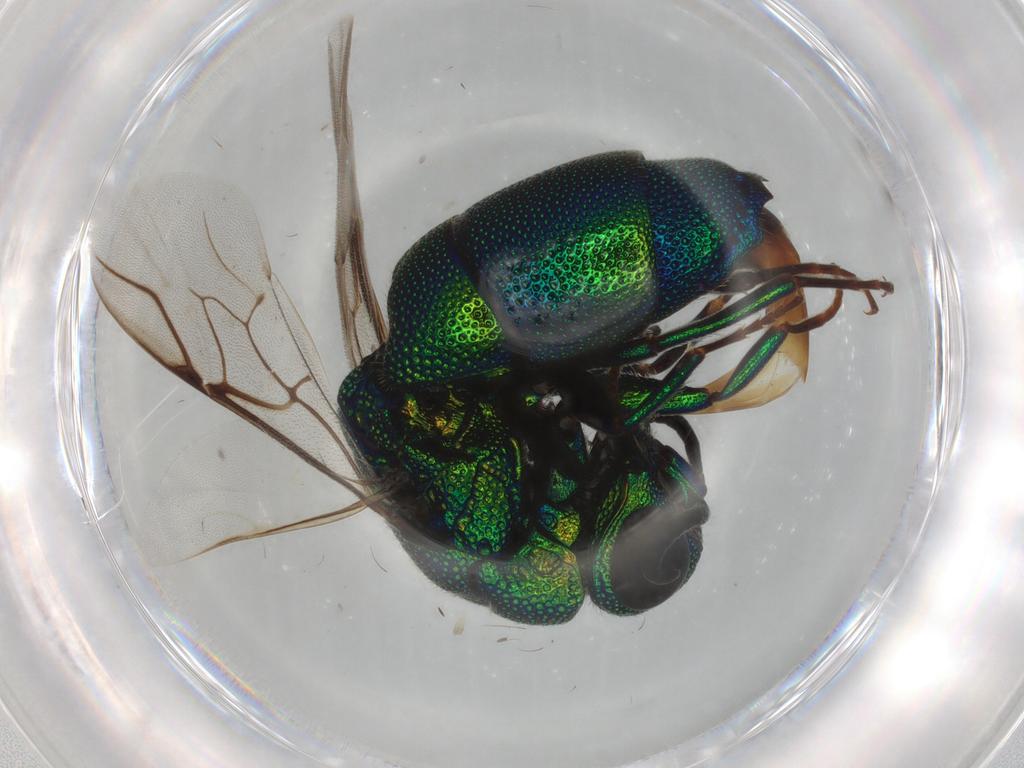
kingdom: Animalia
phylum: Arthropoda
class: Insecta
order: Hymenoptera
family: Chrysididae
